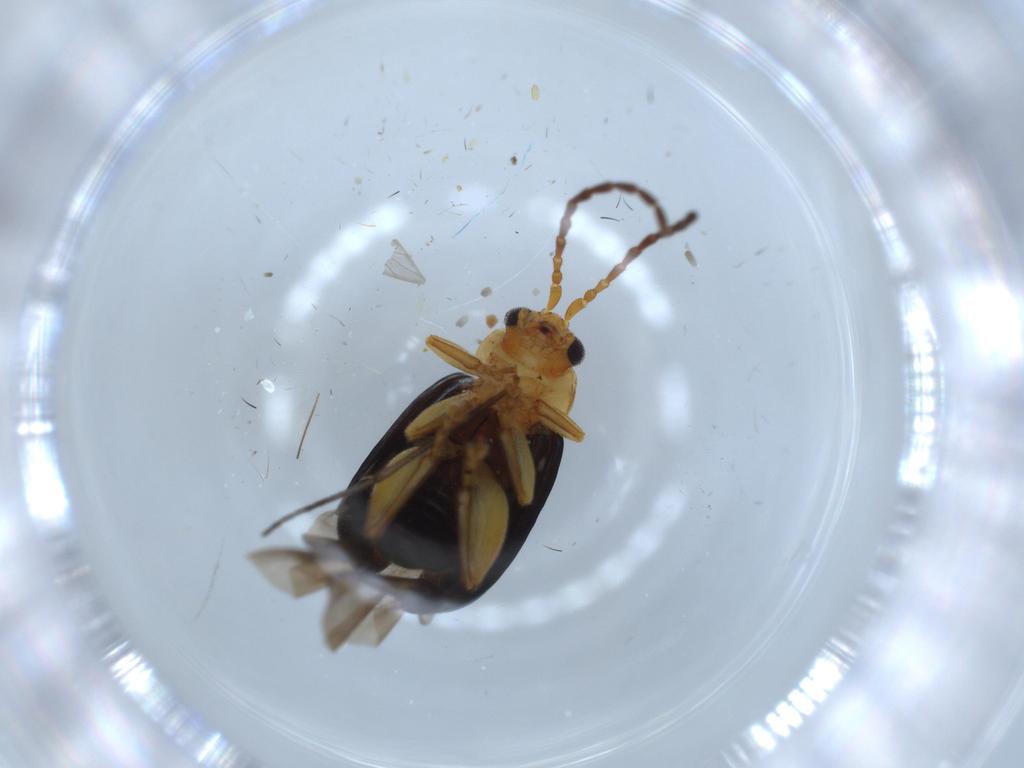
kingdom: Animalia
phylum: Arthropoda
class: Insecta
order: Coleoptera
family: Chrysomelidae
